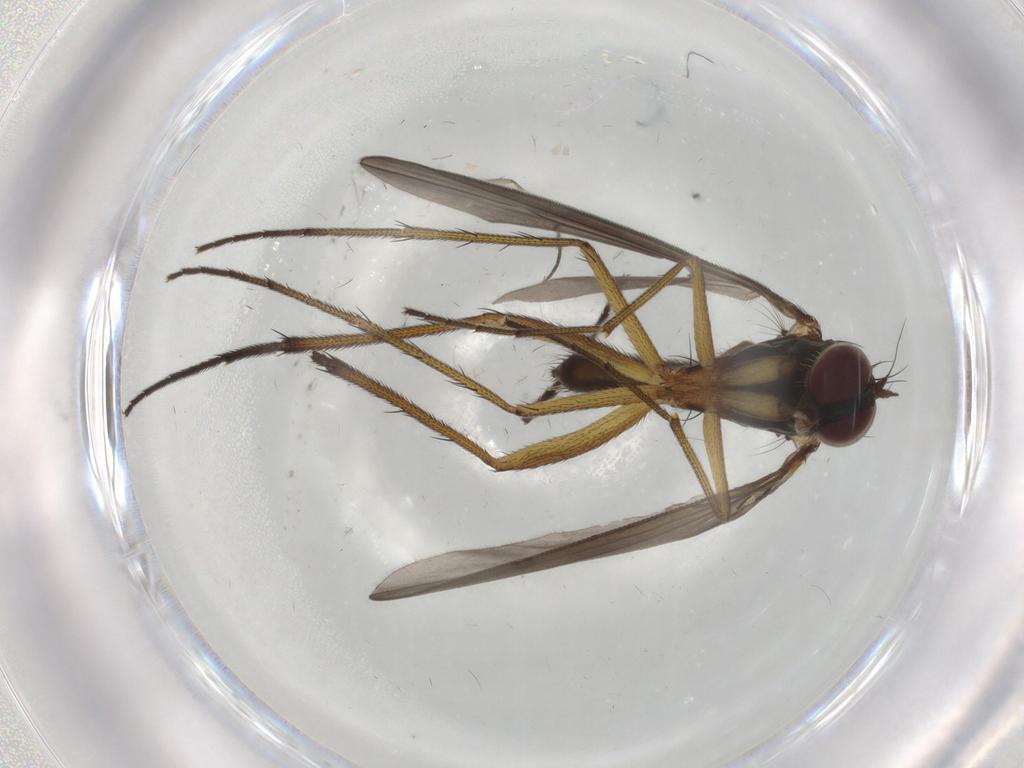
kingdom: Animalia
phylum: Arthropoda
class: Insecta
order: Diptera
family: Dolichopodidae
